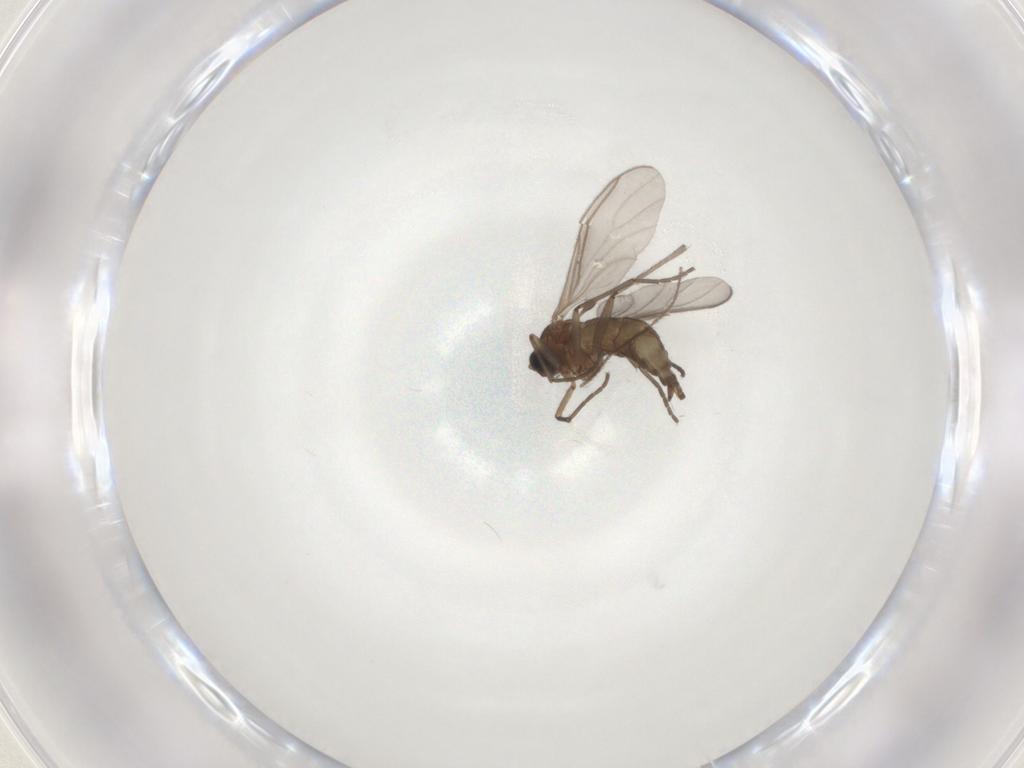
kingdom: Animalia
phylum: Arthropoda
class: Insecta
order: Diptera
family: Sciaridae
